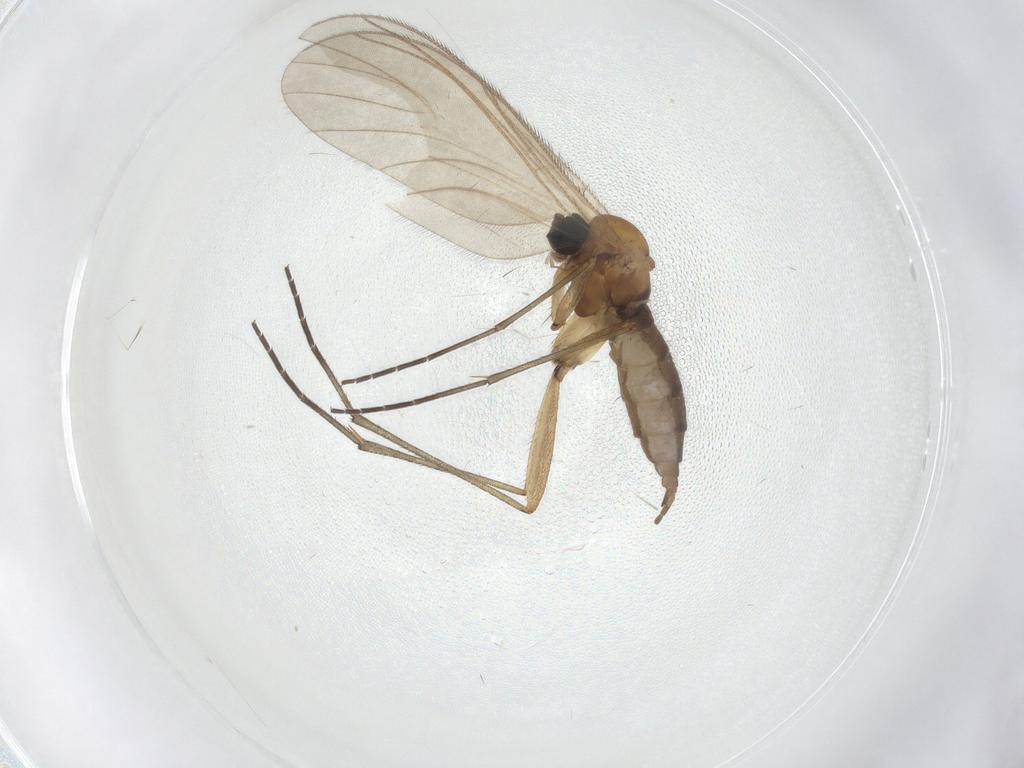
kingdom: Animalia
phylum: Arthropoda
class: Insecta
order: Diptera
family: Sciaridae
